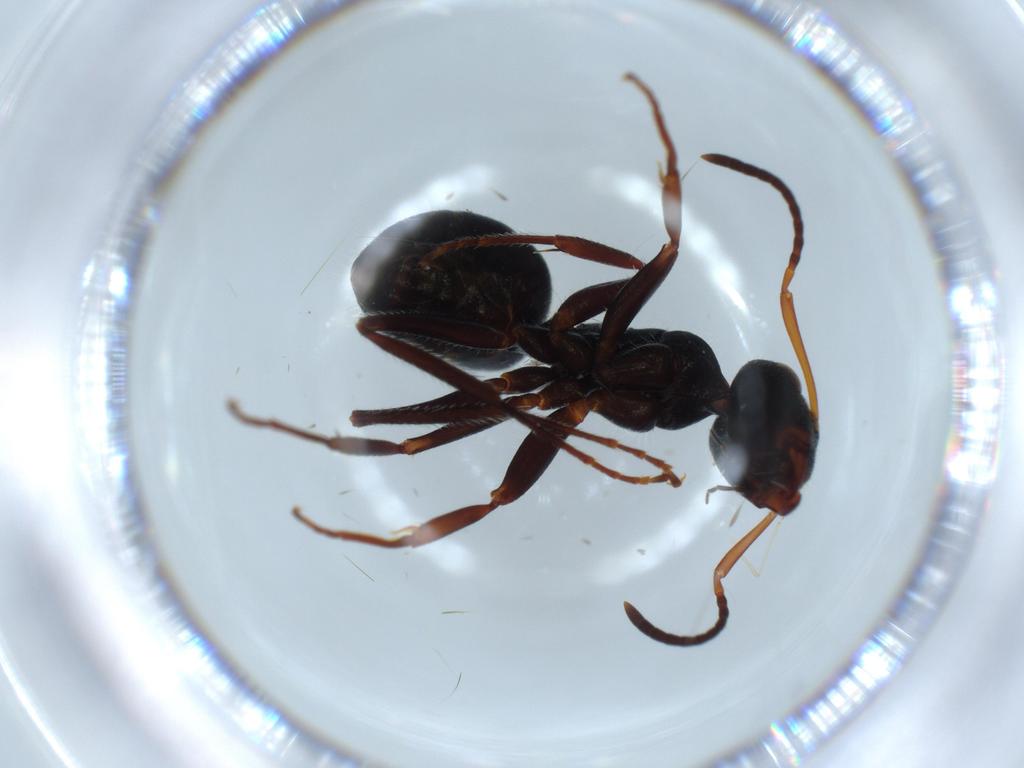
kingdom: Animalia
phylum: Arthropoda
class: Insecta
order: Hymenoptera
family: Formicidae
